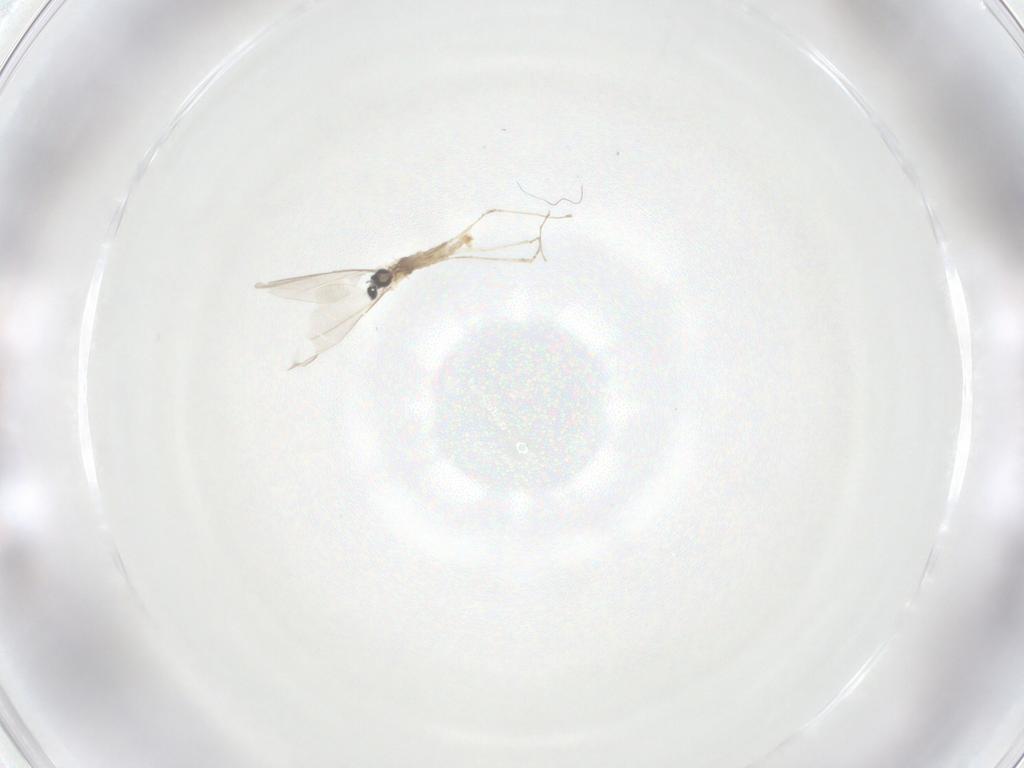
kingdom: Animalia
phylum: Arthropoda
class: Insecta
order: Diptera
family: Cecidomyiidae
